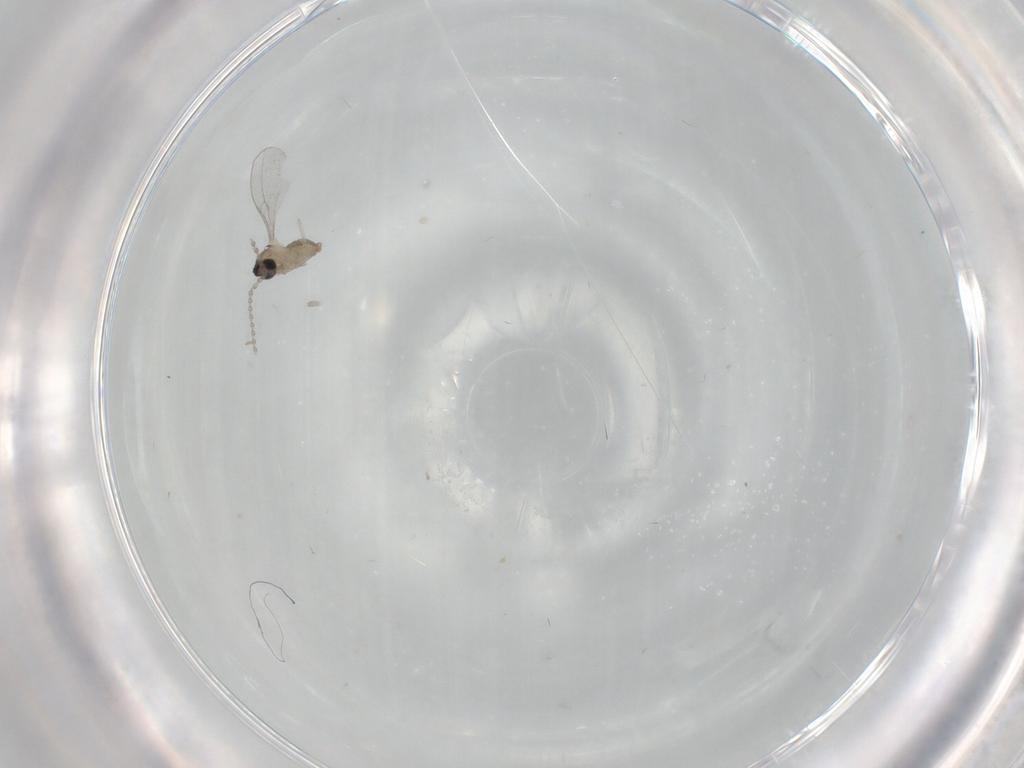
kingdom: Animalia
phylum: Arthropoda
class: Insecta
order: Diptera
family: Cecidomyiidae
